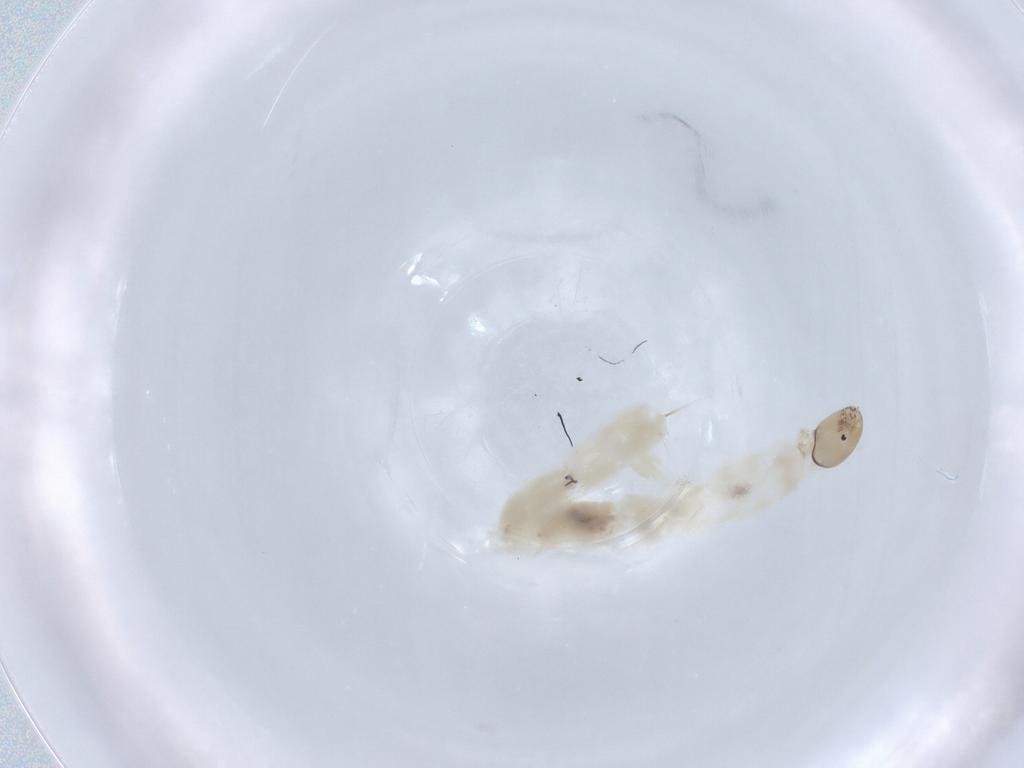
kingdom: Animalia
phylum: Arthropoda
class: Insecta
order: Diptera
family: Chironomidae
